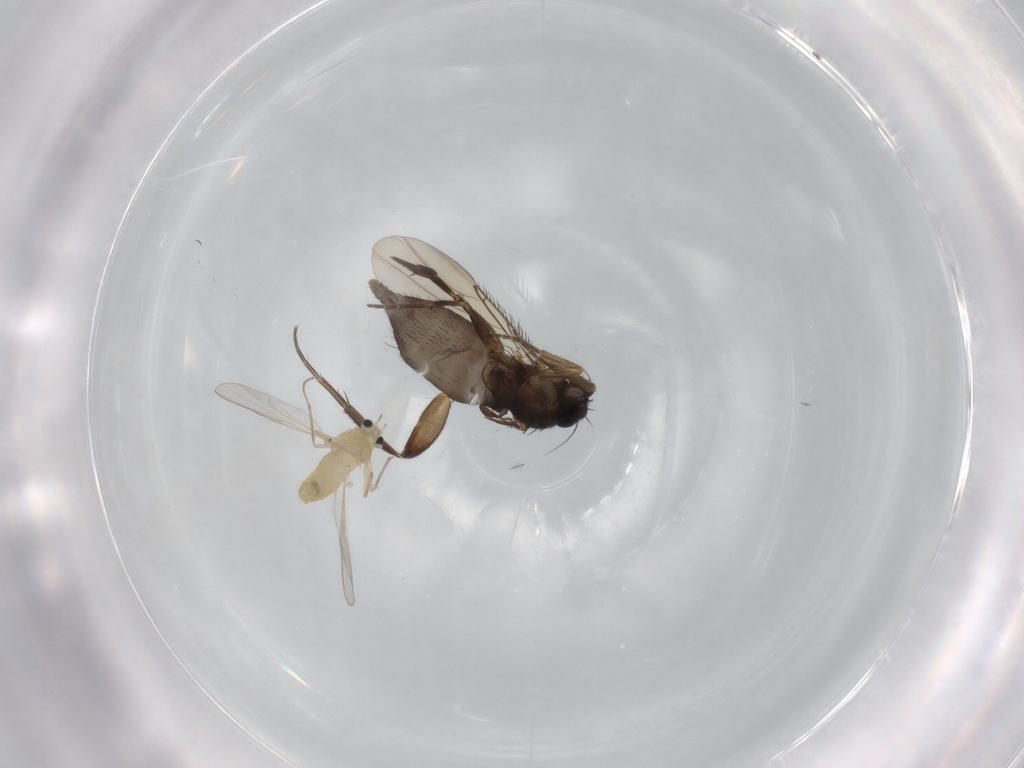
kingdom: Animalia
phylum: Arthropoda
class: Insecta
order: Diptera
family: Phoridae
